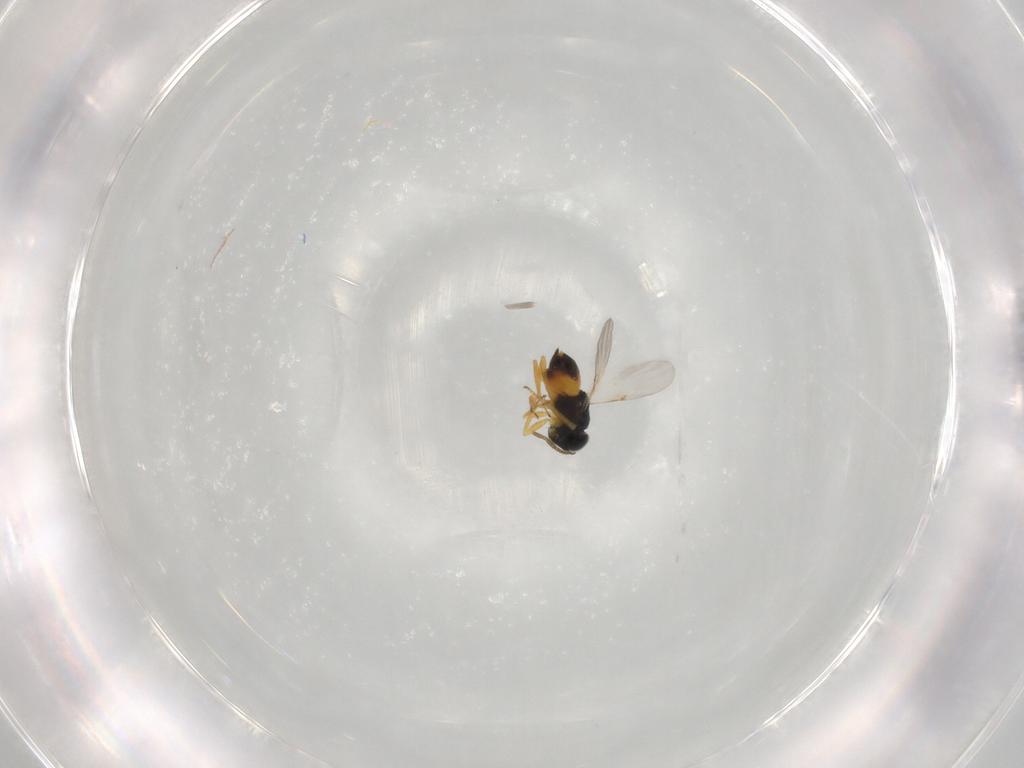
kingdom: Animalia
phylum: Arthropoda
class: Insecta
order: Hymenoptera
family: Encyrtidae
